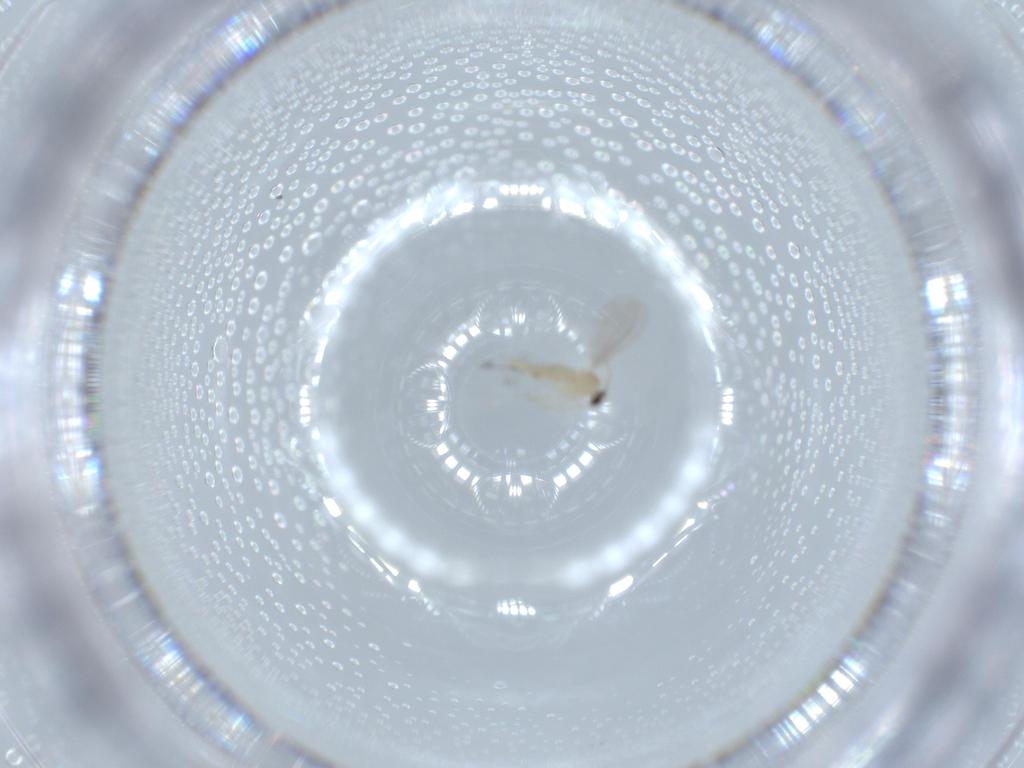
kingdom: Animalia
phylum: Arthropoda
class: Insecta
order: Diptera
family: Cecidomyiidae
